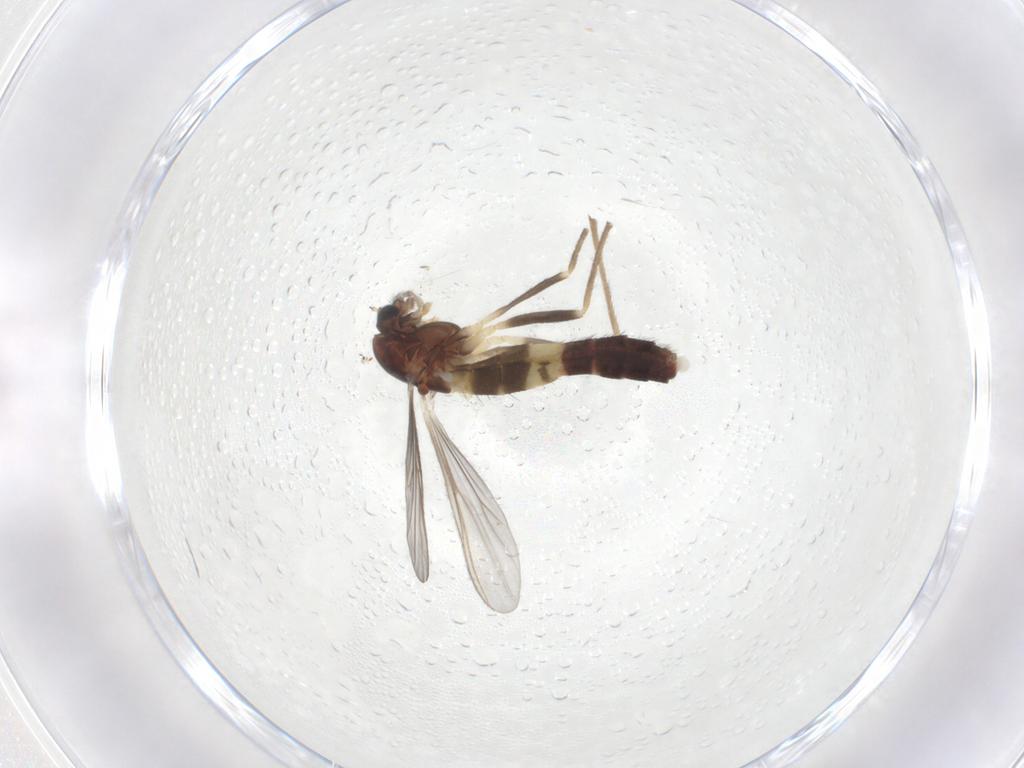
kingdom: Animalia
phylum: Arthropoda
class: Insecta
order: Diptera
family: Chironomidae
